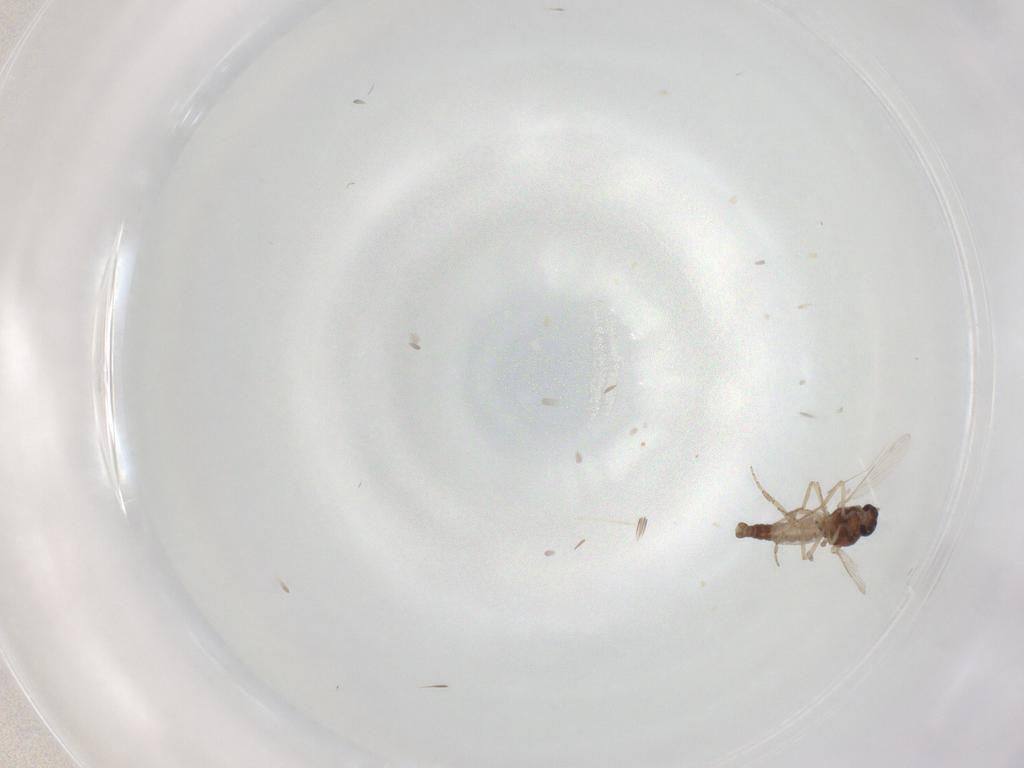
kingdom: Animalia
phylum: Arthropoda
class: Insecta
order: Diptera
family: Ceratopogonidae
